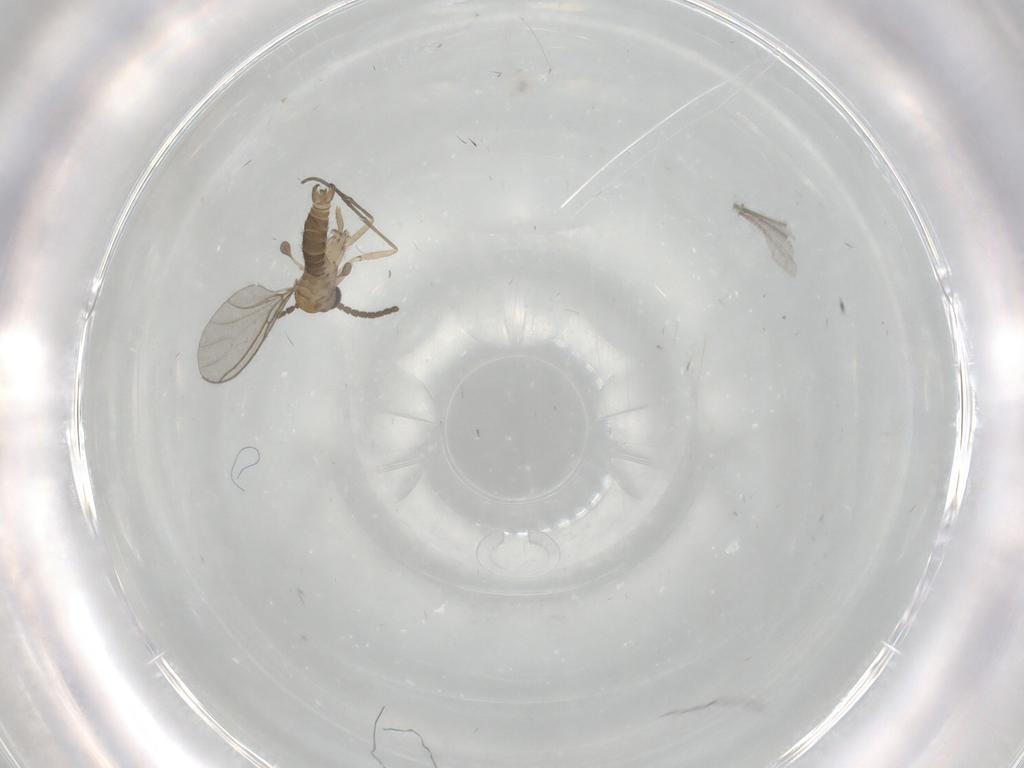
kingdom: Animalia
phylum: Arthropoda
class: Insecta
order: Diptera
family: Sciaridae
